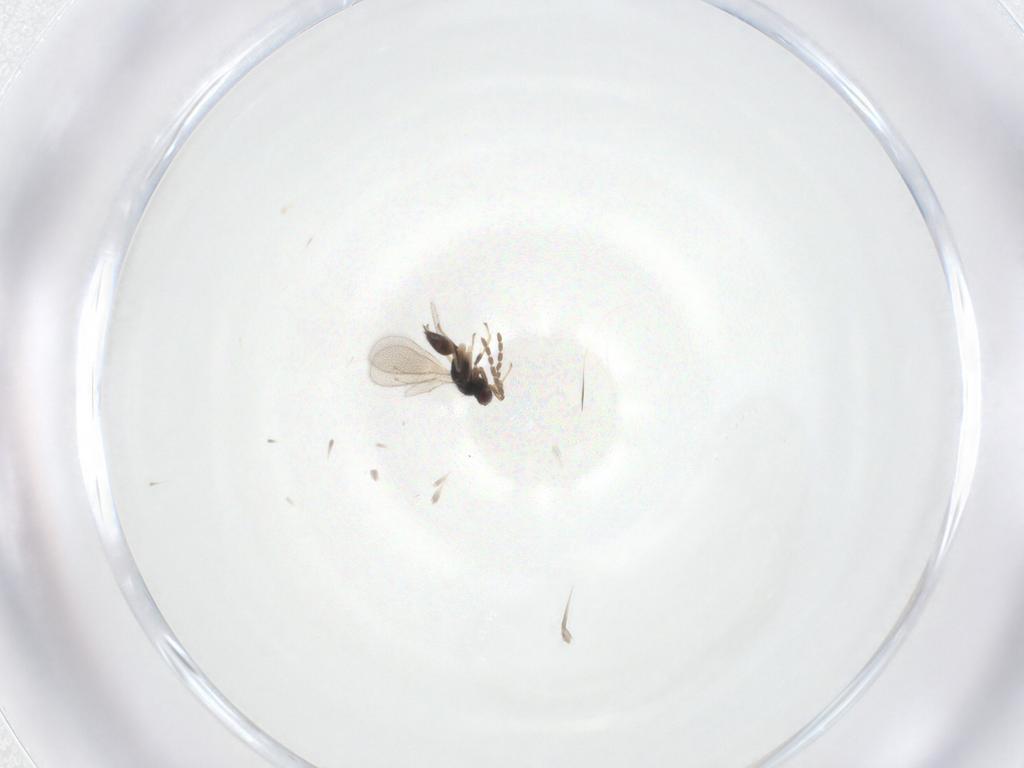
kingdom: Animalia
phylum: Arthropoda
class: Insecta
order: Hymenoptera
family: Eulophidae
